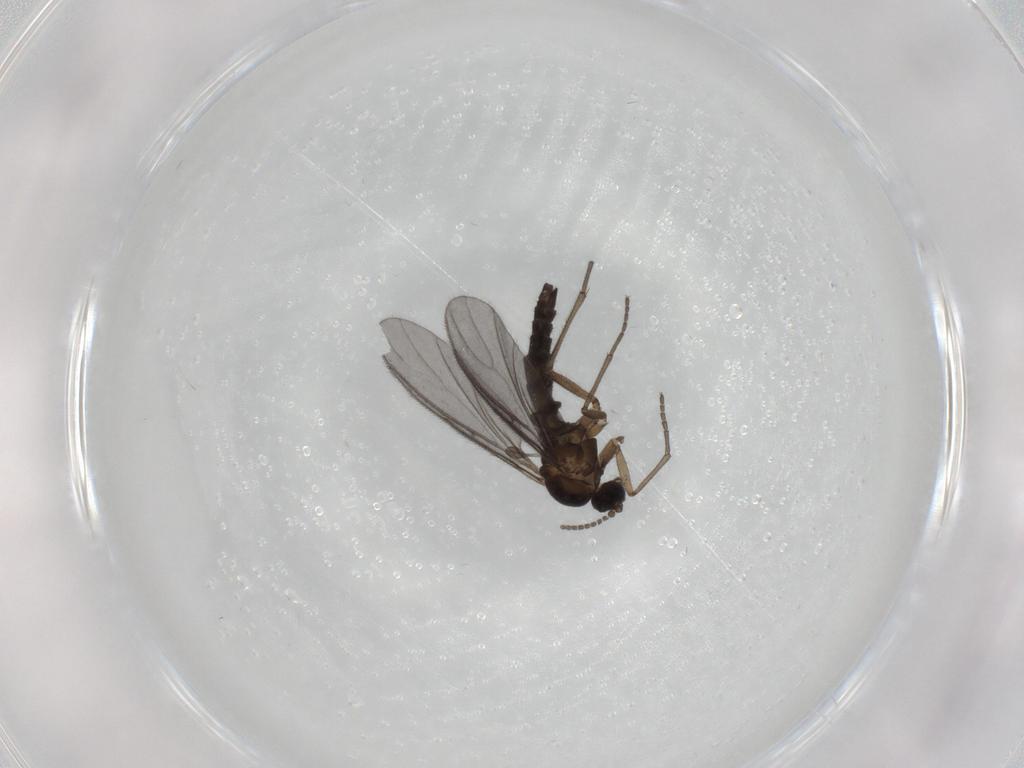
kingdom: Animalia
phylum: Arthropoda
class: Insecta
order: Diptera
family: Sciaridae
